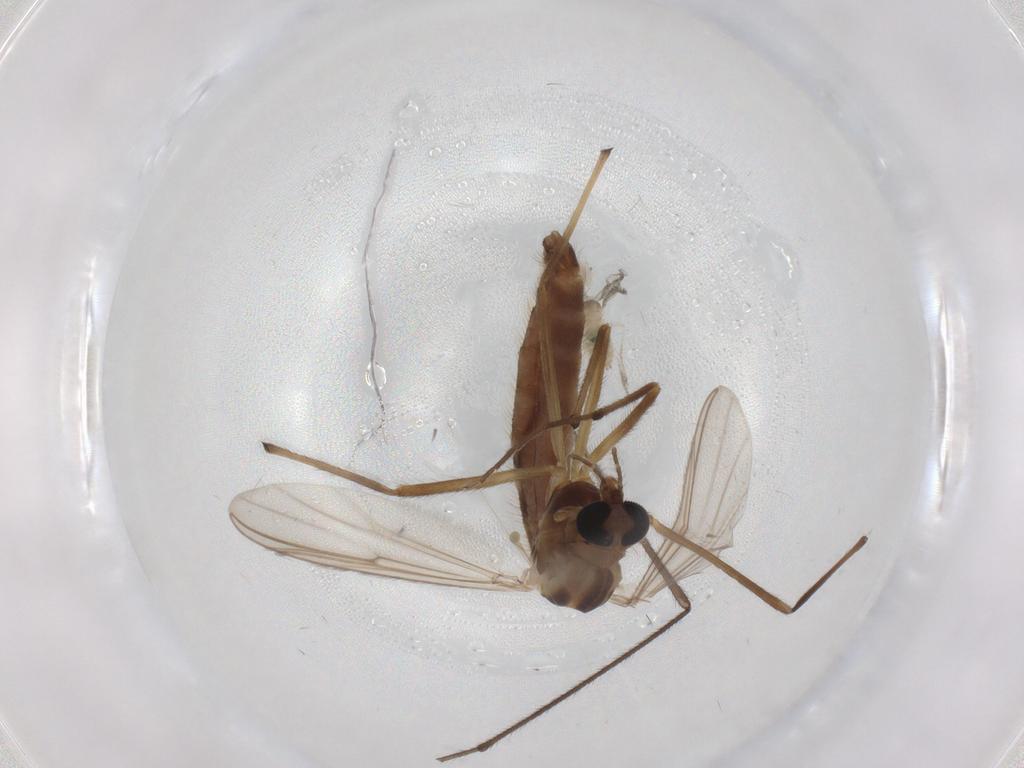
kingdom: Animalia
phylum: Arthropoda
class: Insecta
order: Diptera
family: Chironomidae
